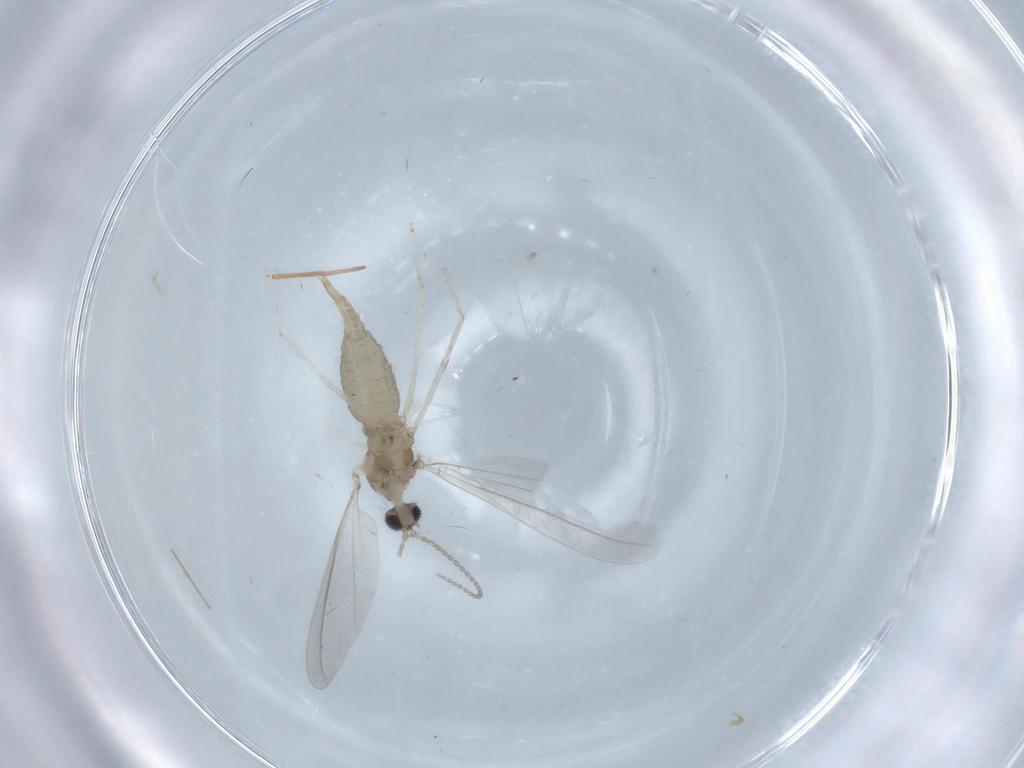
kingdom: Animalia
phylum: Arthropoda
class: Insecta
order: Diptera
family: Cecidomyiidae
